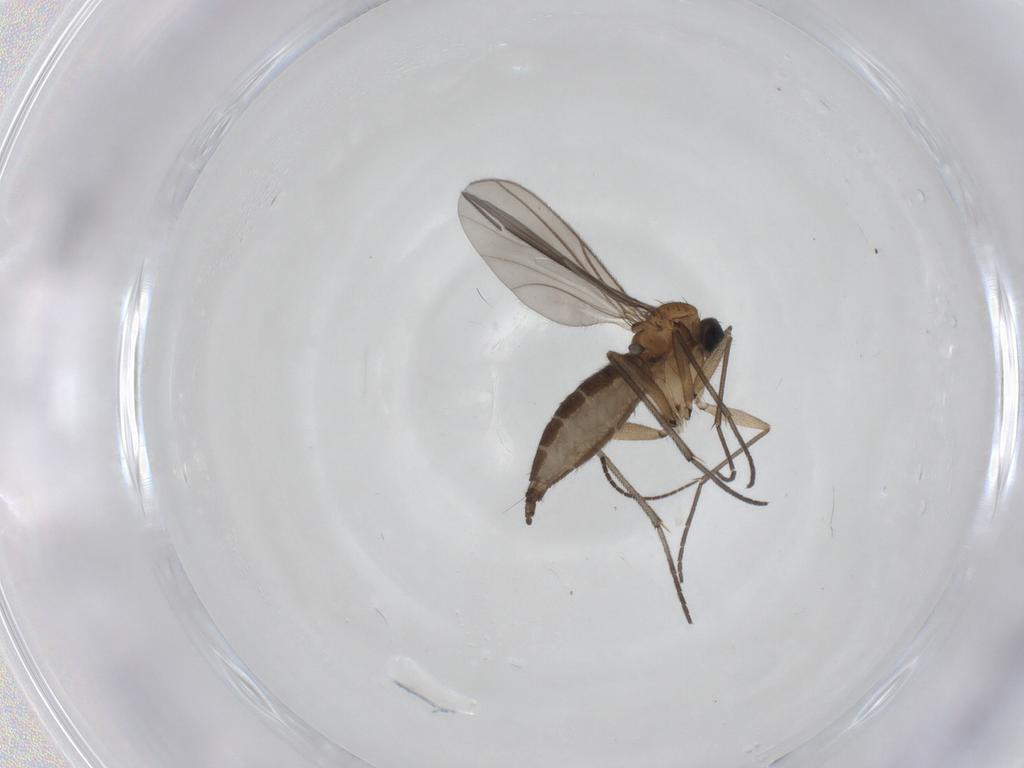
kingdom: Animalia
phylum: Arthropoda
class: Insecta
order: Diptera
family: Sciaridae
